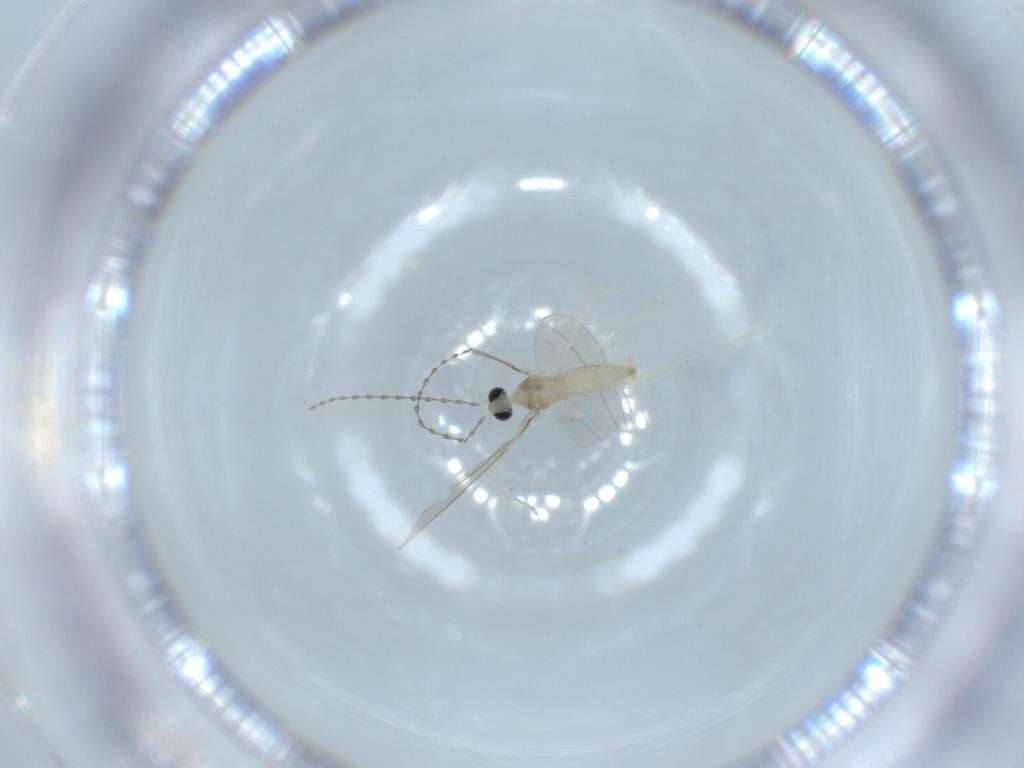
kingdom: Animalia
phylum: Arthropoda
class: Insecta
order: Diptera
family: Cecidomyiidae
